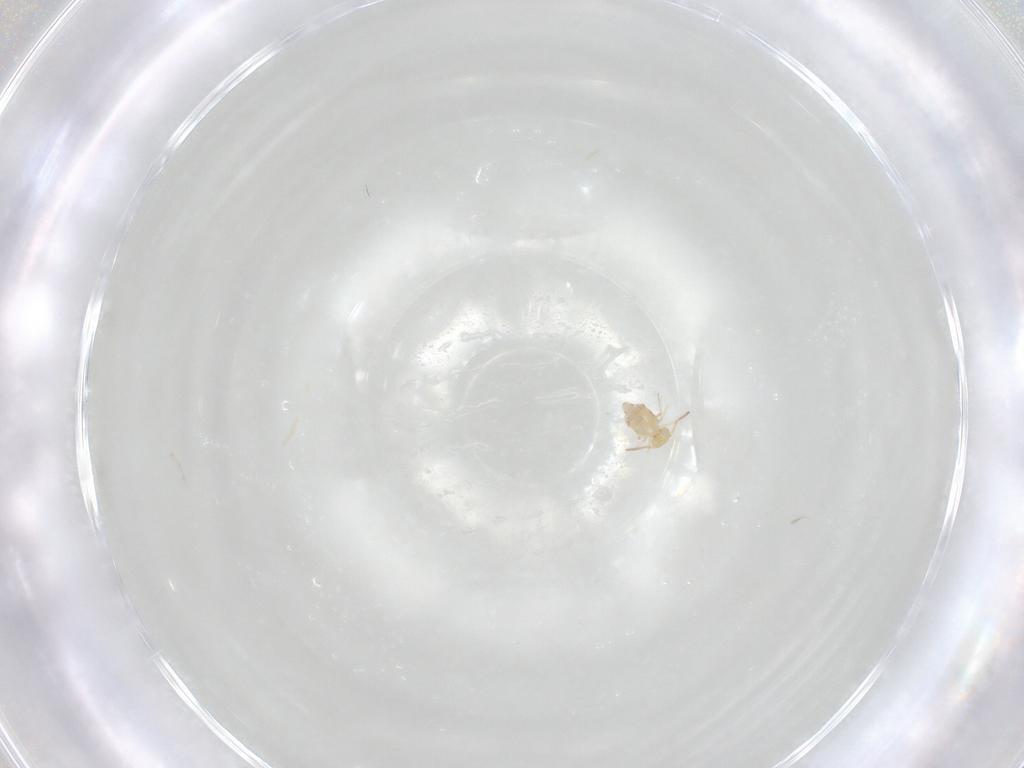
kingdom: Animalia
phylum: Arthropoda
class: Collembola
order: Symphypleona
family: Bourletiellidae
